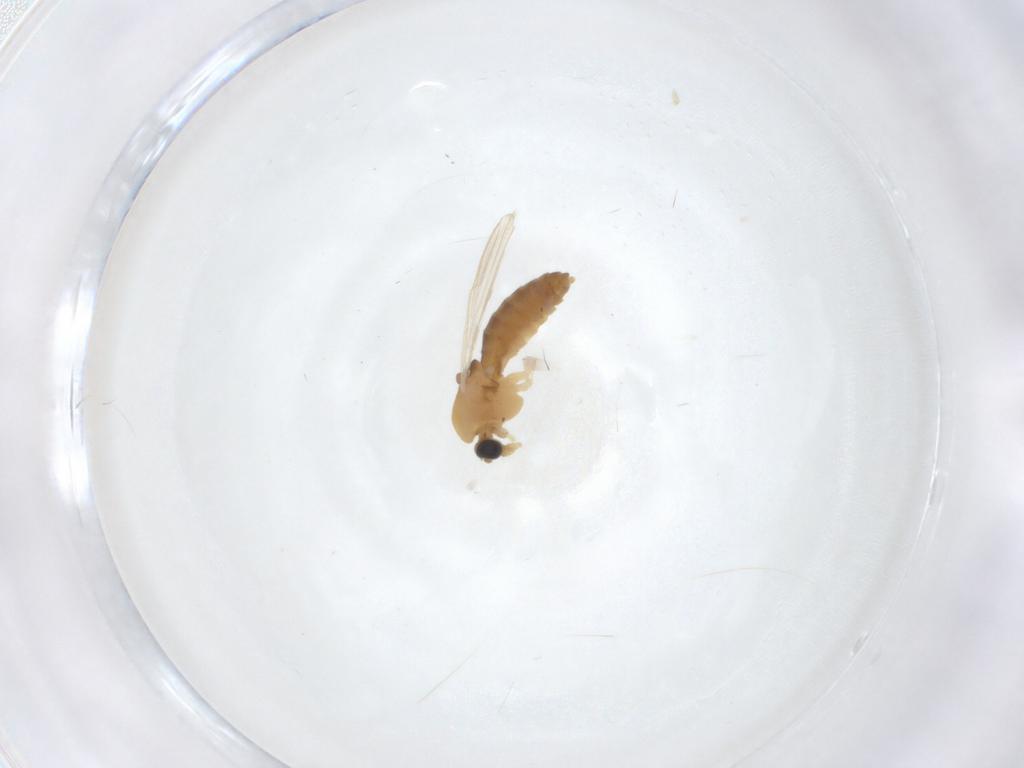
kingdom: Animalia
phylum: Arthropoda
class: Insecta
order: Diptera
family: Chironomidae
